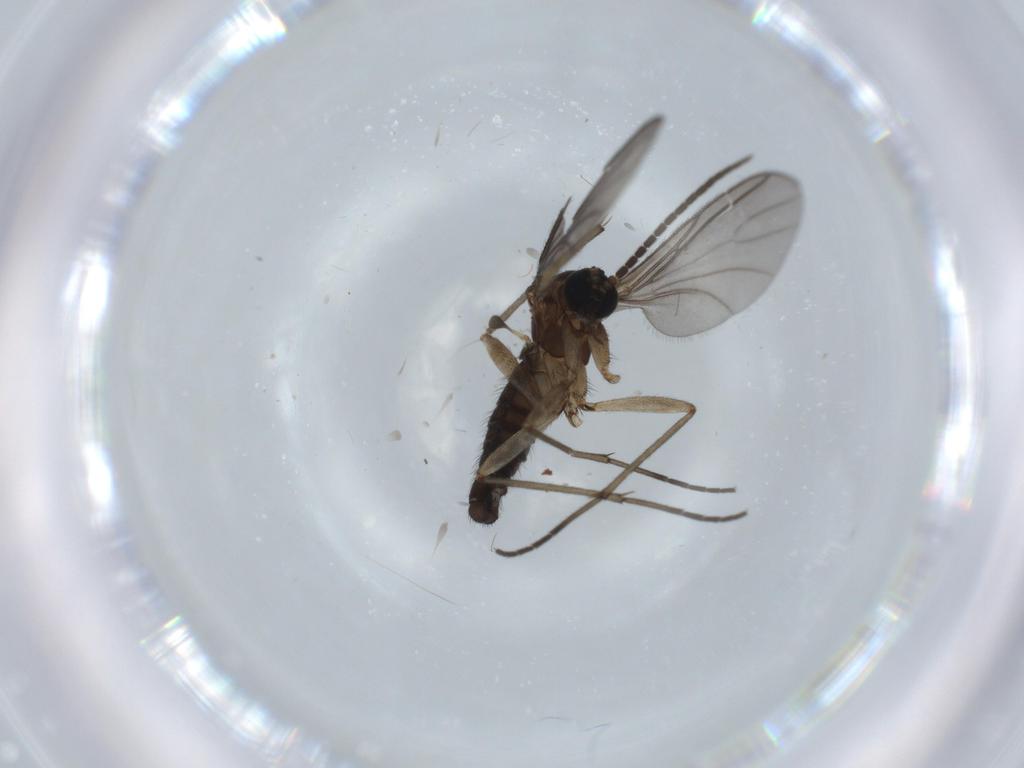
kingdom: Animalia
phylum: Arthropoda
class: Insecta
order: Diptera
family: Sciaridae
